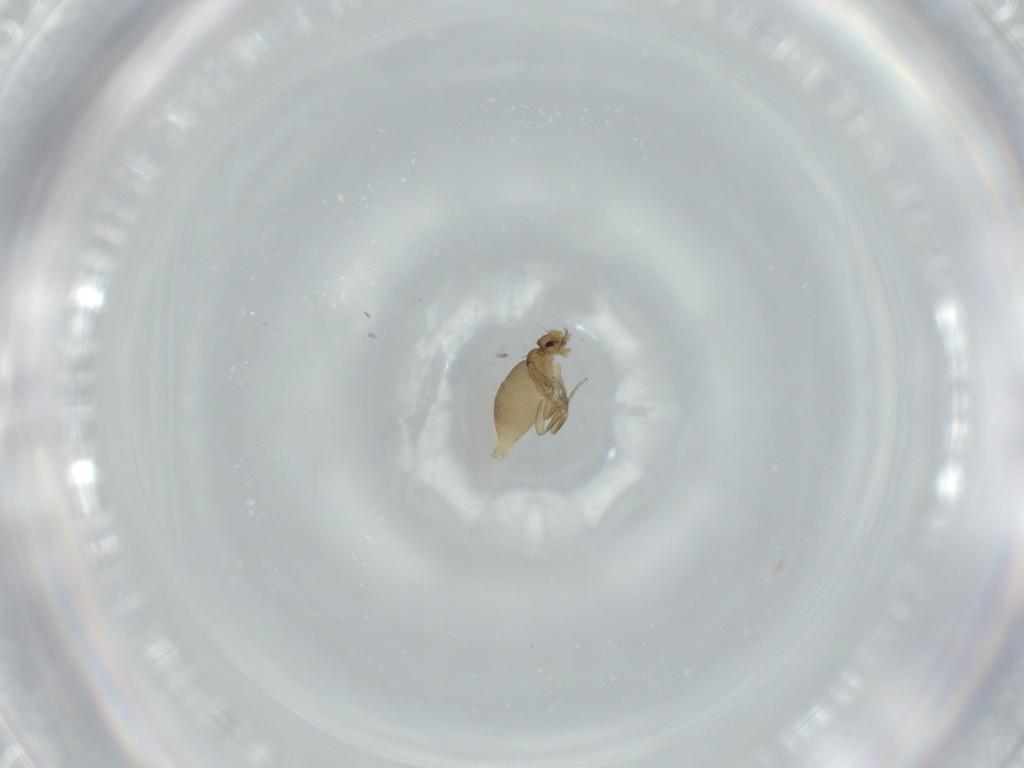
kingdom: Animalia
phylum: Arthropoda
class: Insecta
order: Diptera
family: Phoridae
